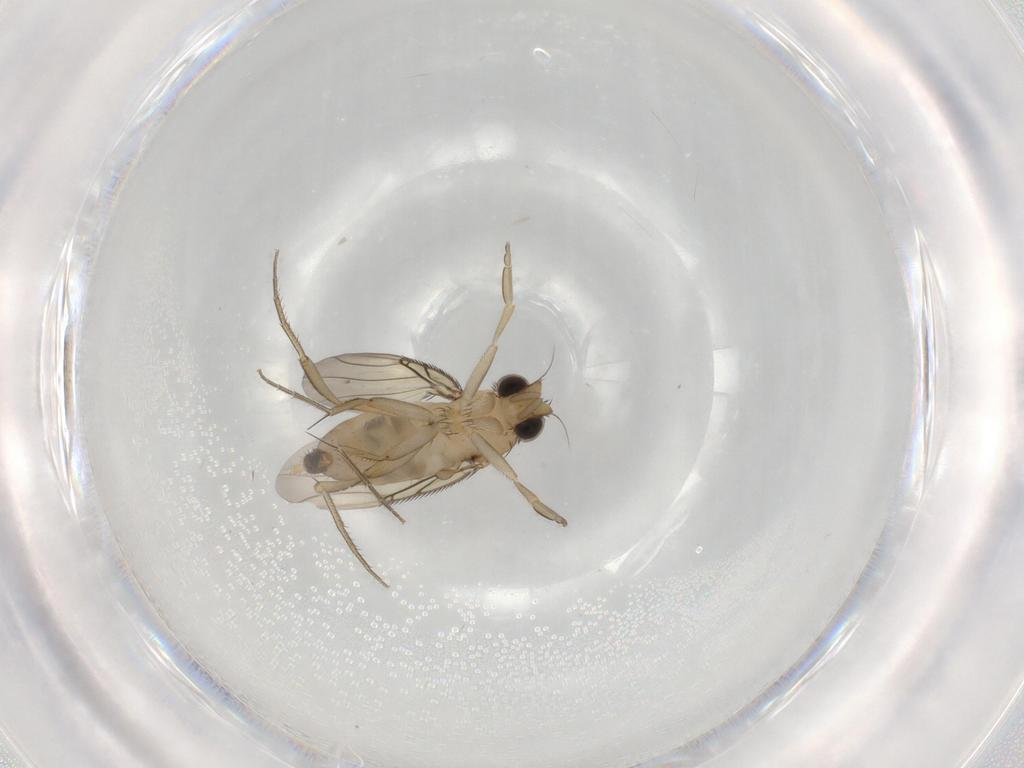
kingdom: Animalia
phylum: Arthropoda
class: Insecta
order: Diptera
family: Phoridae
